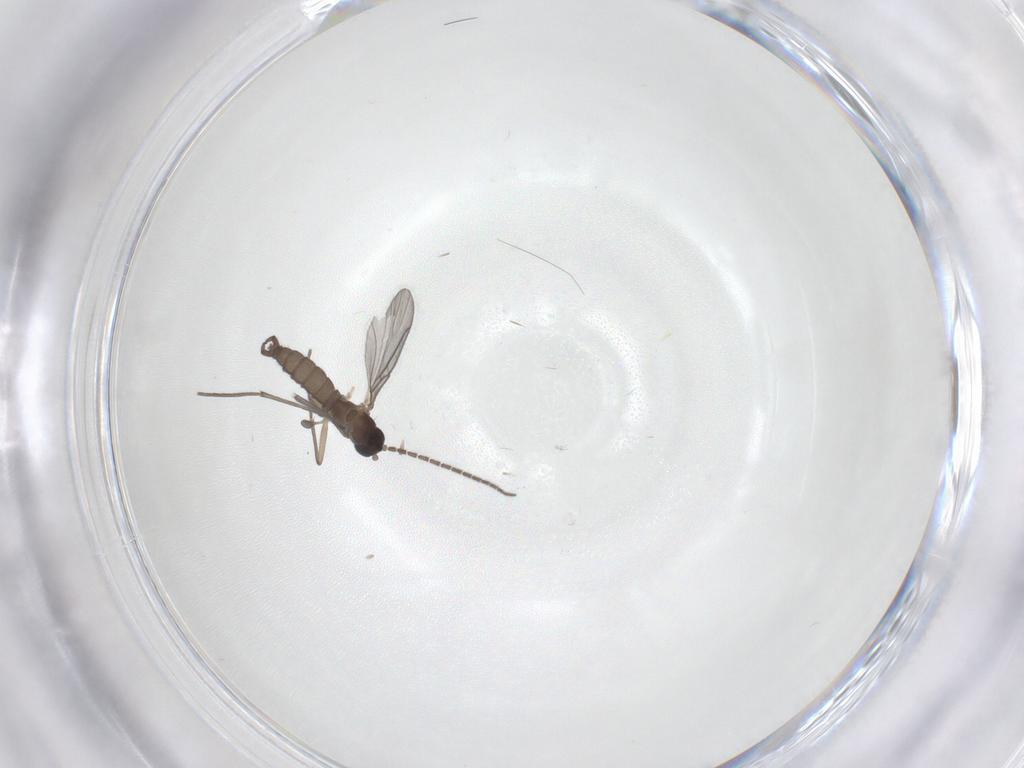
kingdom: Animalia
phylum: Arthropoda
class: Insecta
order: Diptera
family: Sciaridae
